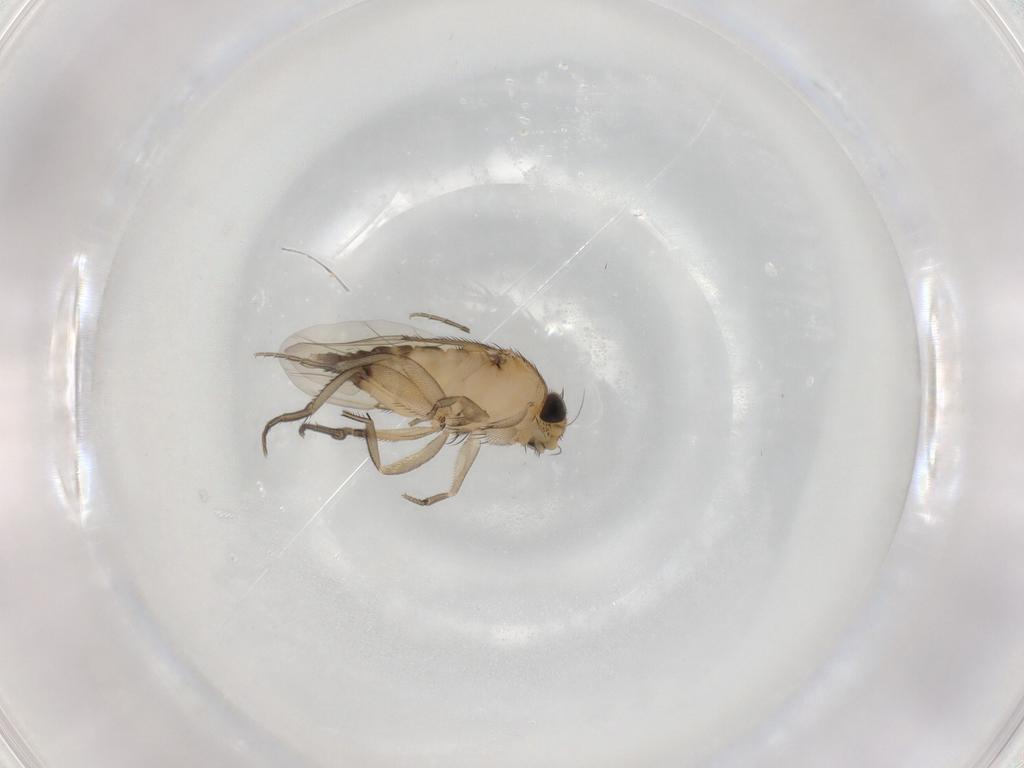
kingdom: Animalia
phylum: Arthropoda
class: Insecta
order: Diptera
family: Phoridae
